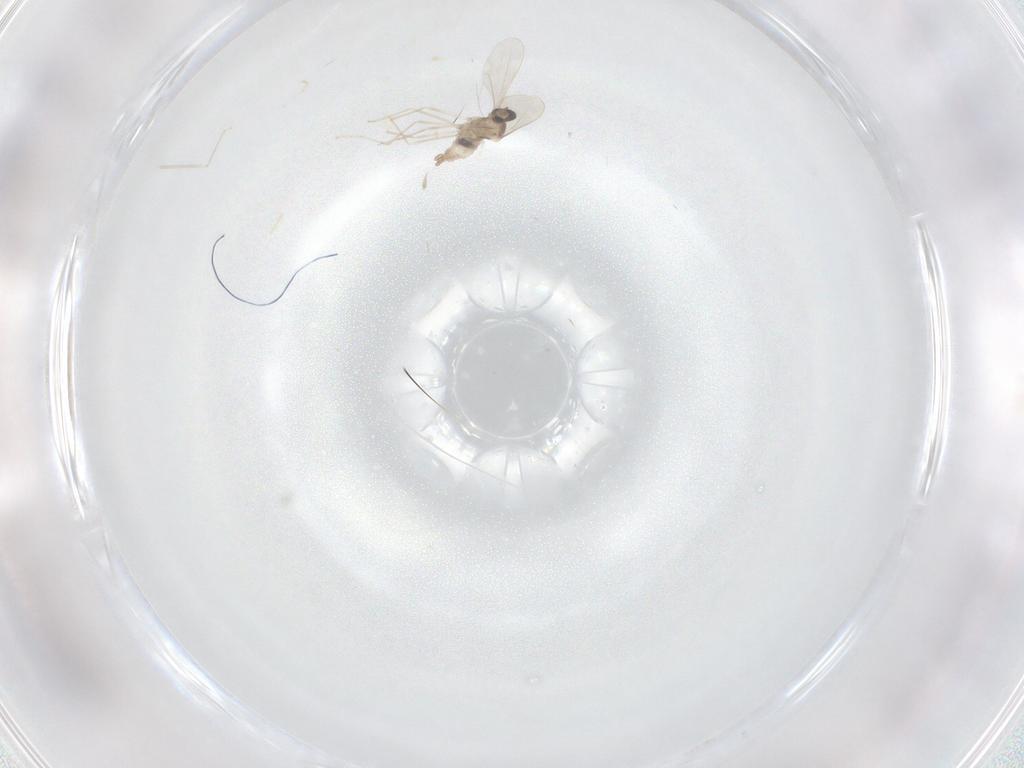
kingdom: Animalia
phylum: Arthropoda
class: Insecta
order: Diptera
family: Cecidomyiidae
